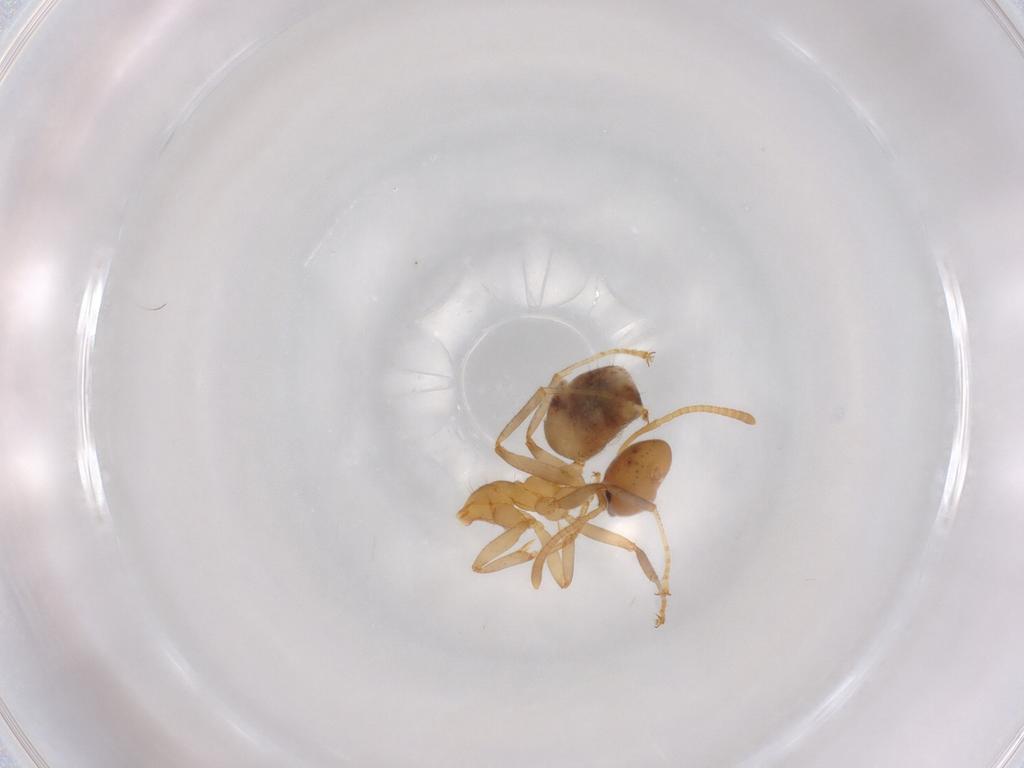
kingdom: Animalia
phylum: Arthropoda
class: Insecta
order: Hymenoptera
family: Formicidae
